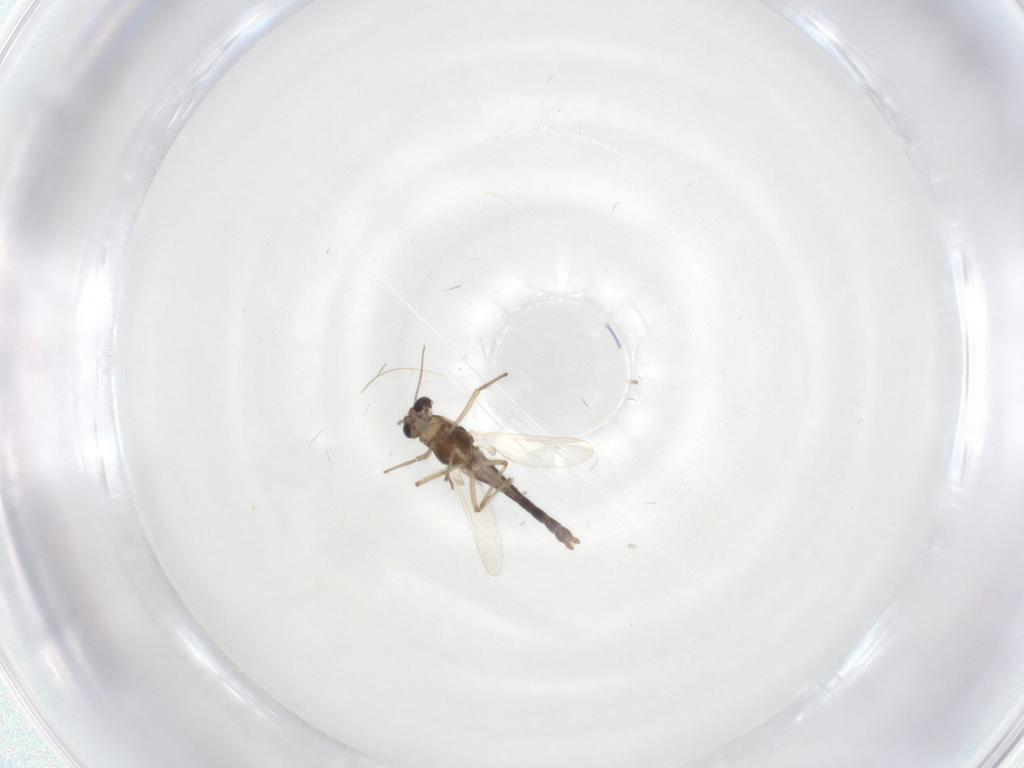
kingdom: Animalia
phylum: Arthropoda
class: Insecta
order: Diptera
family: Chironomidae
